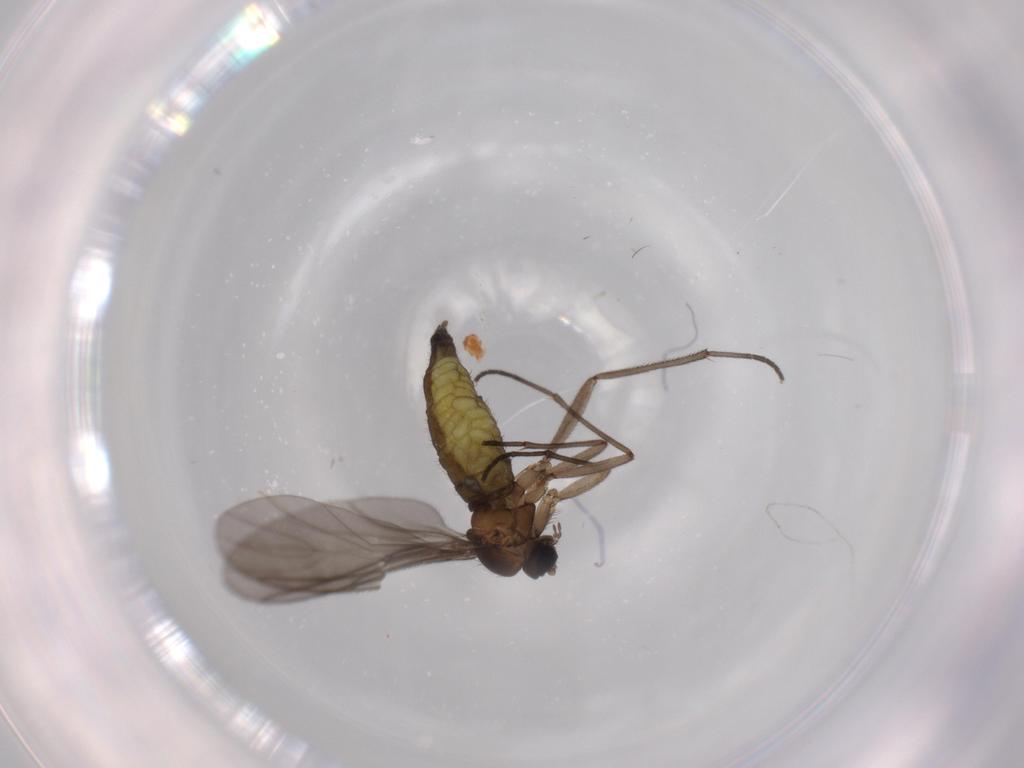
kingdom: Animalia
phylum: Arthropoda
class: Insecta
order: Diptera
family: Sciaridae
